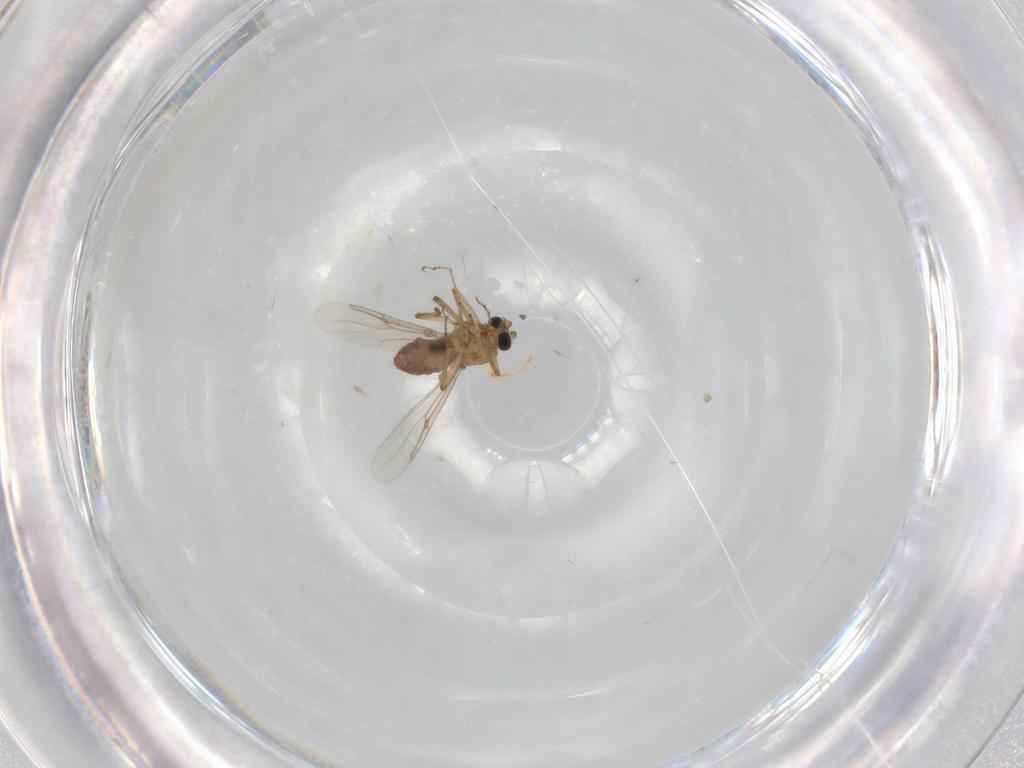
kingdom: Animalia
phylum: Arthropoda
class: Insecta
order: Diptera
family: Ceratopogonidae
